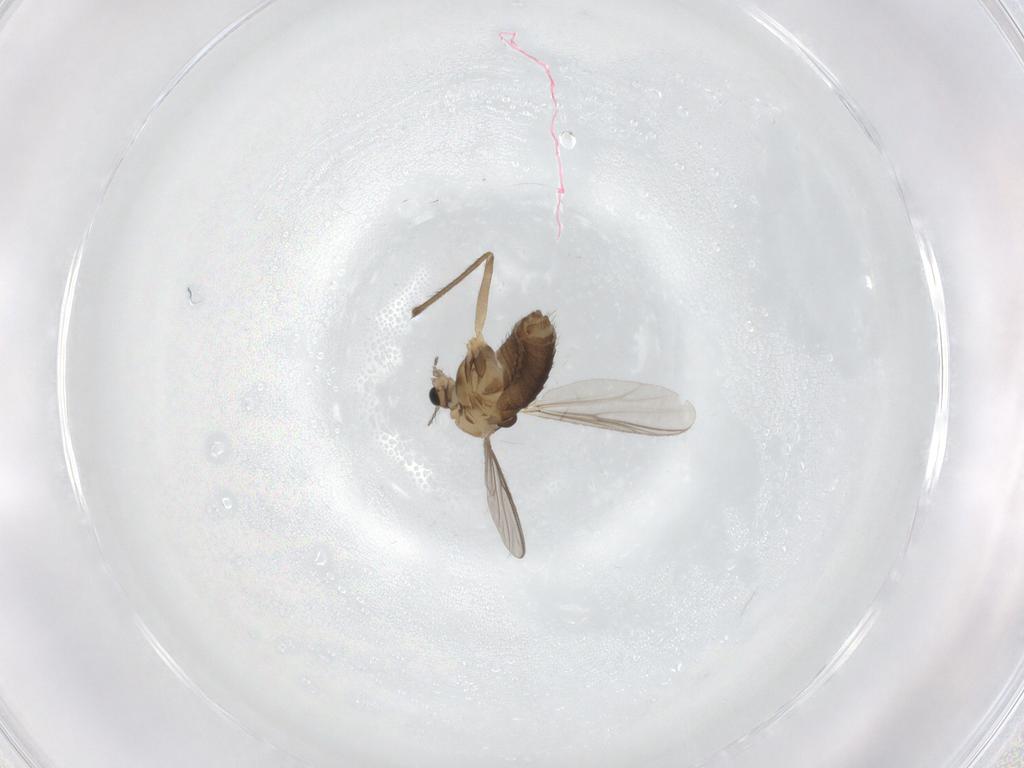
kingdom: Animalia
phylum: Arthropoda
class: Insecta
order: Diptera
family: Chironomidae
